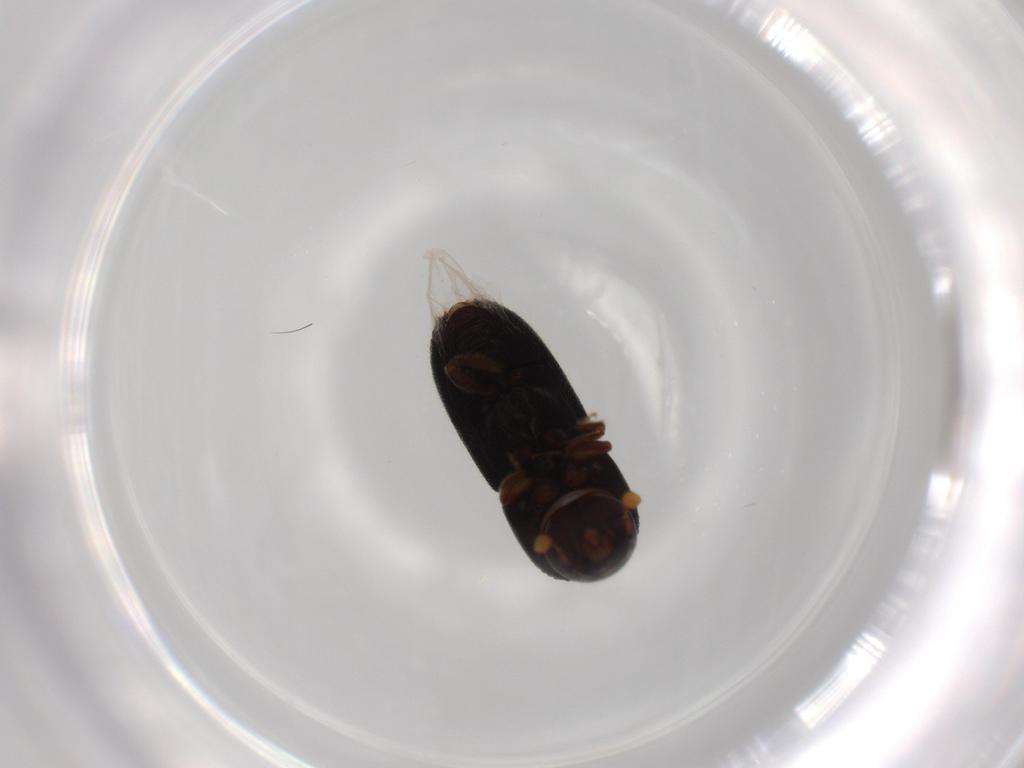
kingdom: Animalia
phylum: Arthropoda
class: Insecta
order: Coleoptera
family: Curculionidae
